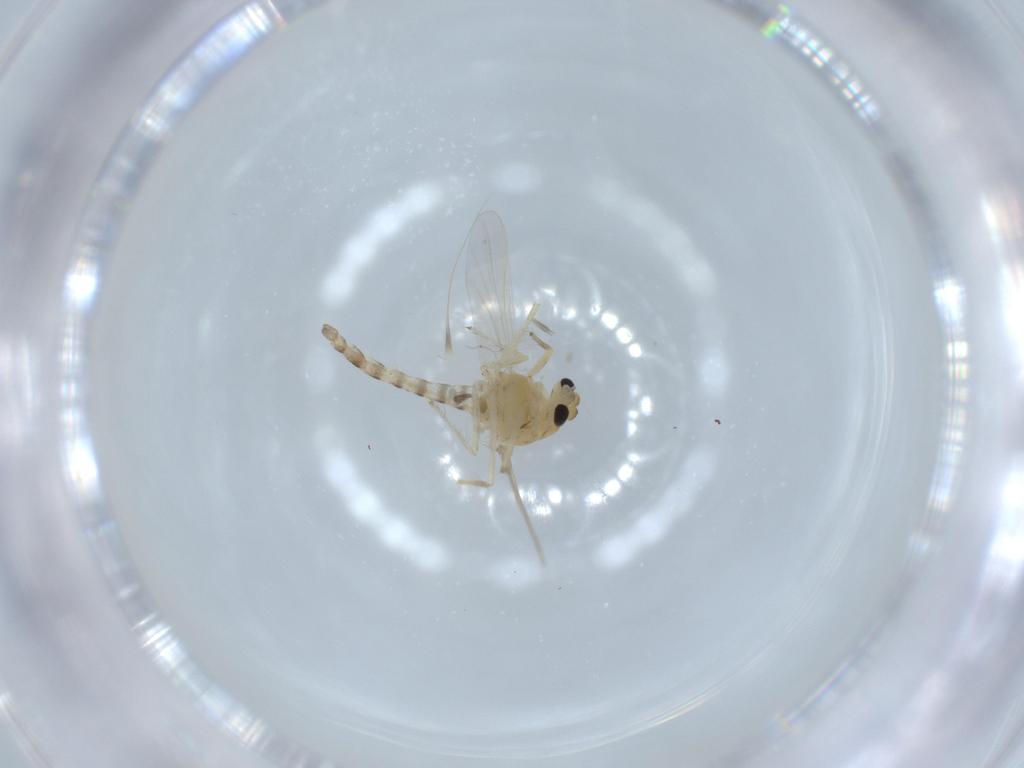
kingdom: Animalia
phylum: Arthropoda
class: Insecta
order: Diptera
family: Chironomidae
